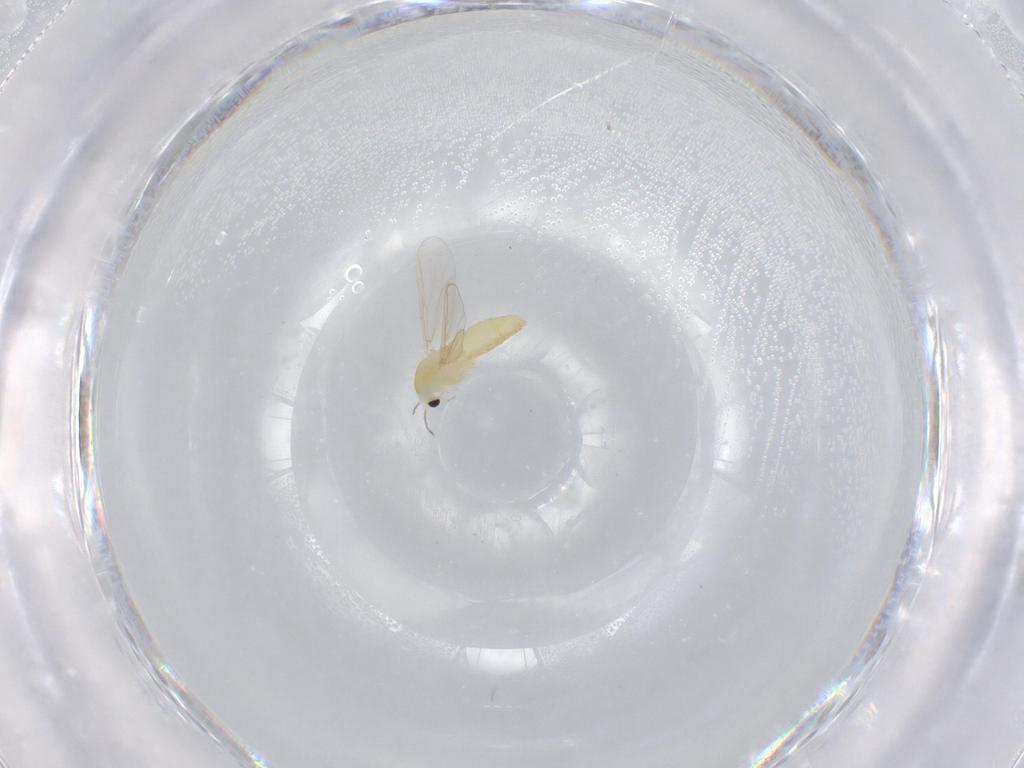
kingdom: Animalia
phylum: Arthropoda
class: Insecta
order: Diptera
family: Chironomidae
